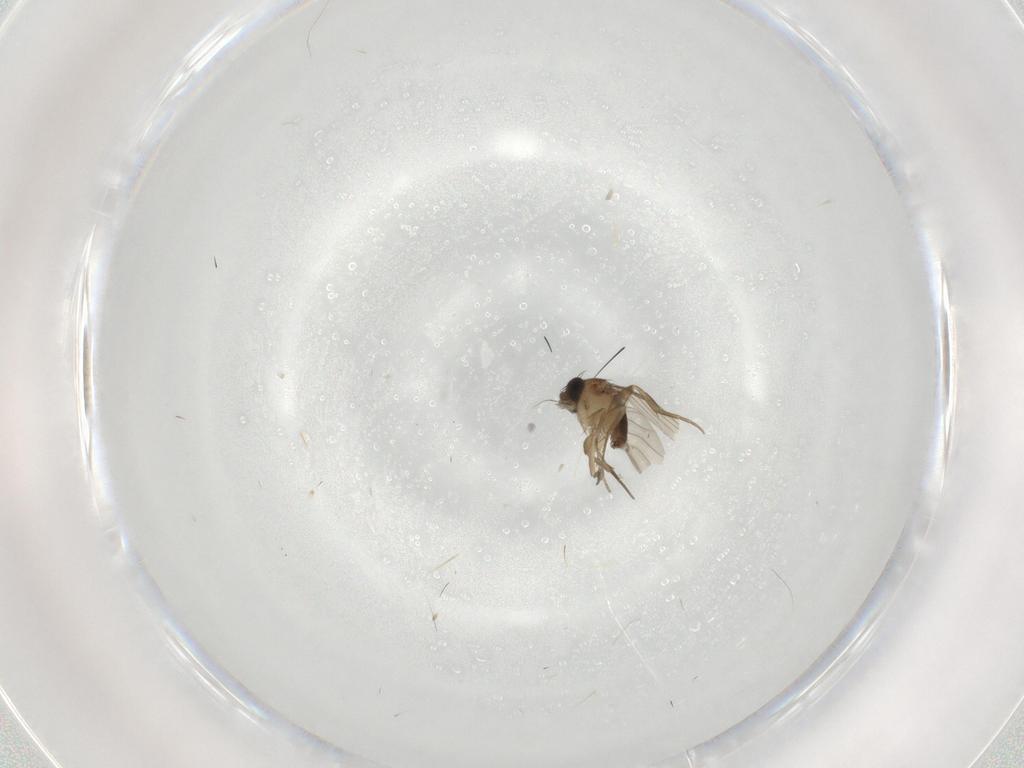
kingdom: Animalia
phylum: Arthropoda
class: Insecta
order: Diptera
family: Phoridae
